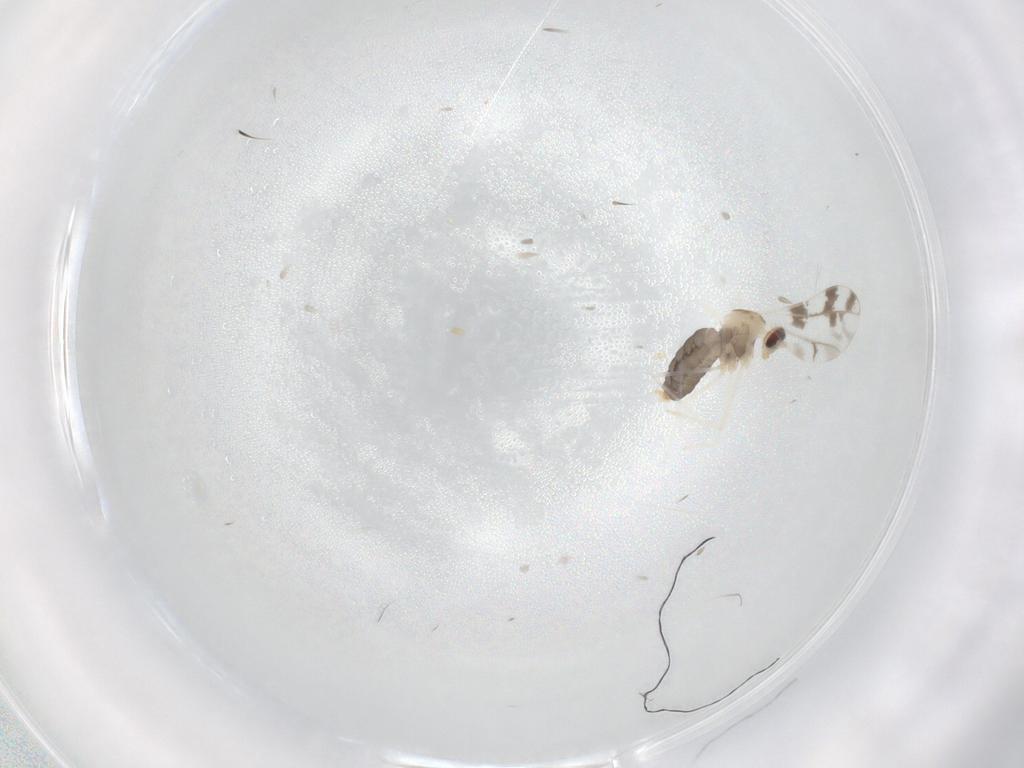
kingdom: Animalia
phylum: Arthropoda
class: Insecta
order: Diptera
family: Cecidomyiidae
